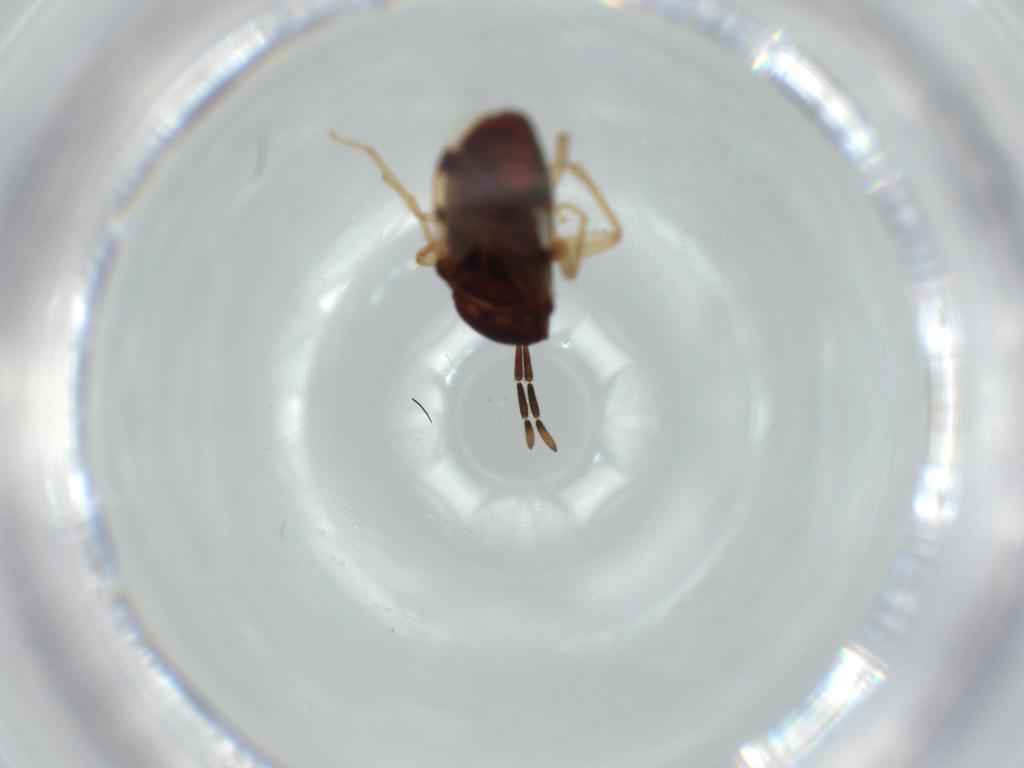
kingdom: Animalia
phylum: Arthropoda
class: Insecta
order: Hemiptera
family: Rhyparochromidae
